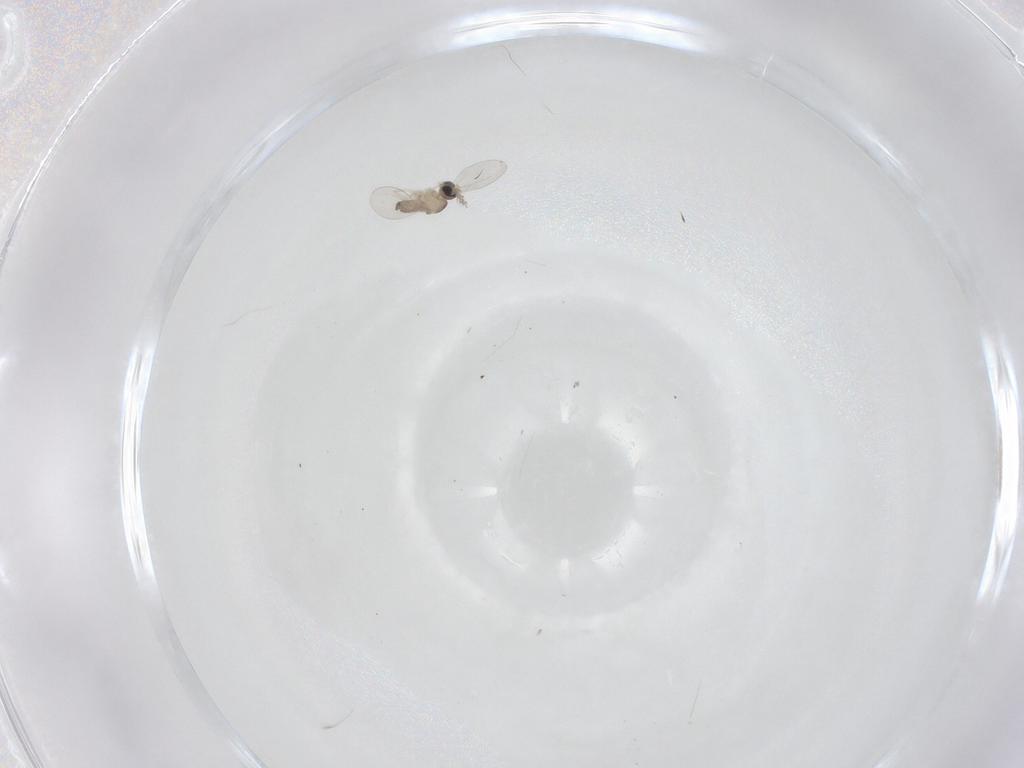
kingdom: Animalia
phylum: Arthropoda
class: Insecta
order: Diptera
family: Cecidomyiidae
